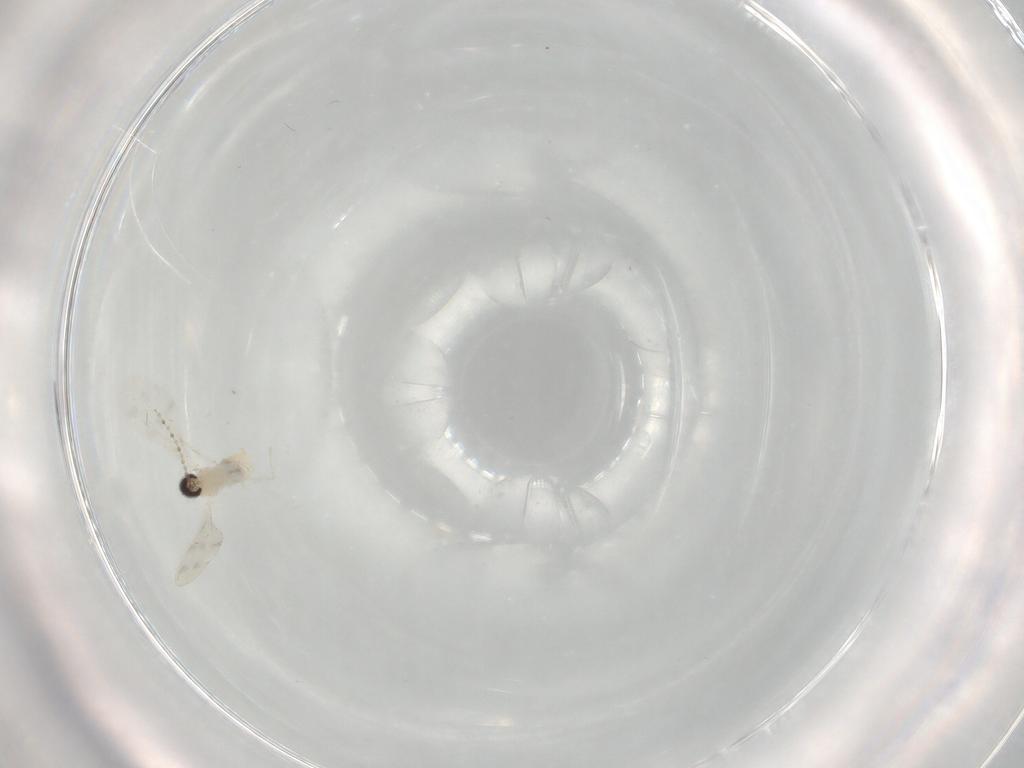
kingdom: Animalia
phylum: Arthropoda
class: Insecta
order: Diptera
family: Cecidomyiidae
